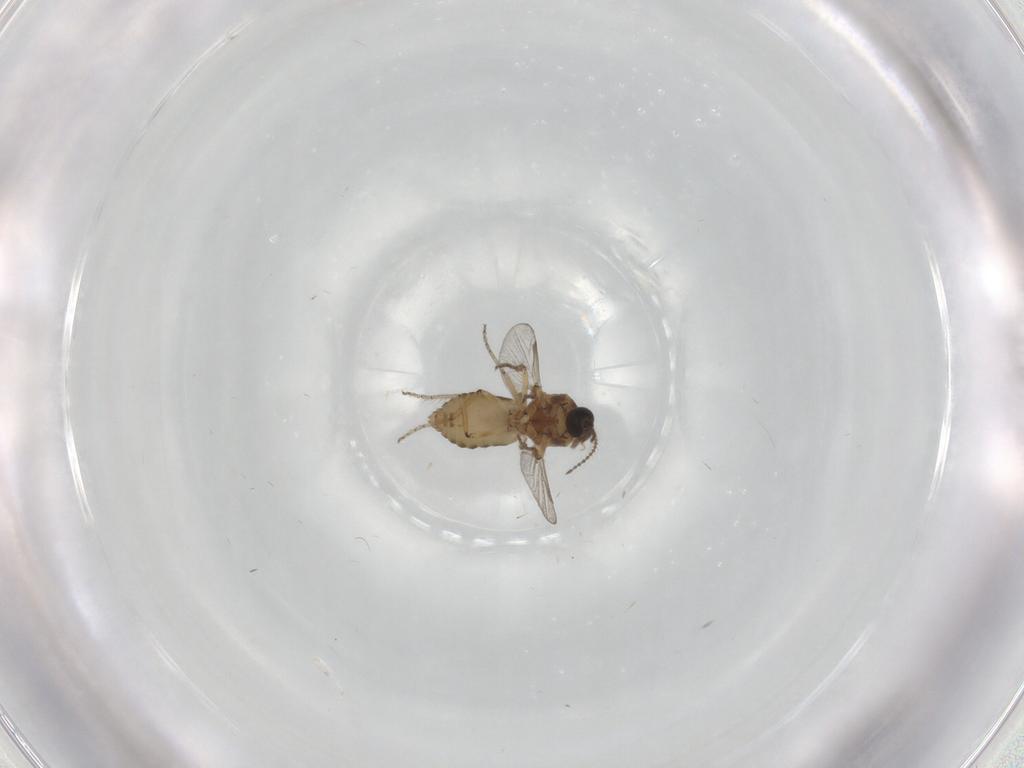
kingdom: Animalia
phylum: Arthropoda
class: Insecta
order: Diptera
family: Ceratopogonidae
